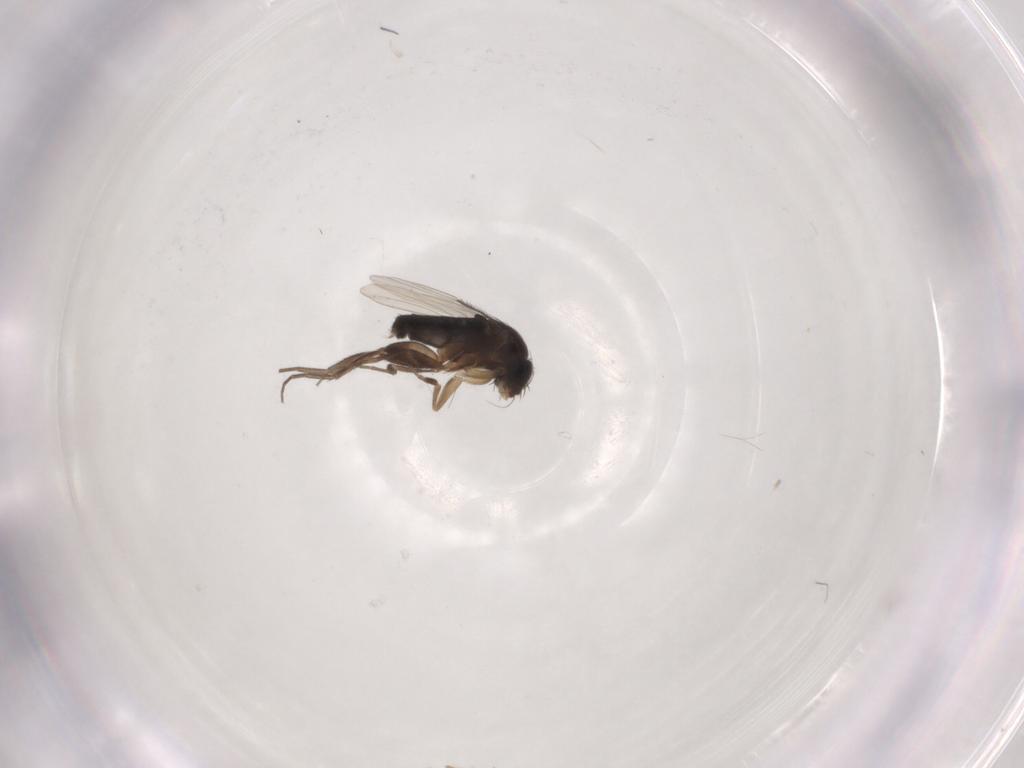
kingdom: Animalia
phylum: Arthropoda
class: Insecta
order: Diptera
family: Phoridae
